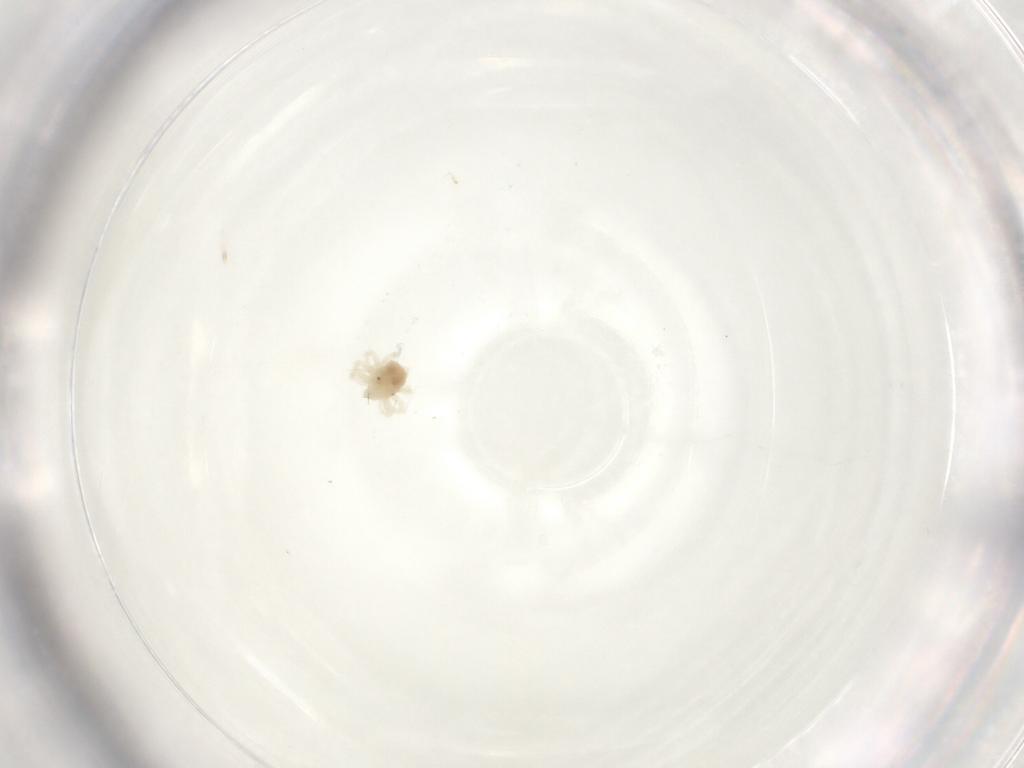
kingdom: Animalia
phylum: Arthropoda
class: Arachnida
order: Trombidiformes
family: Anystidae
